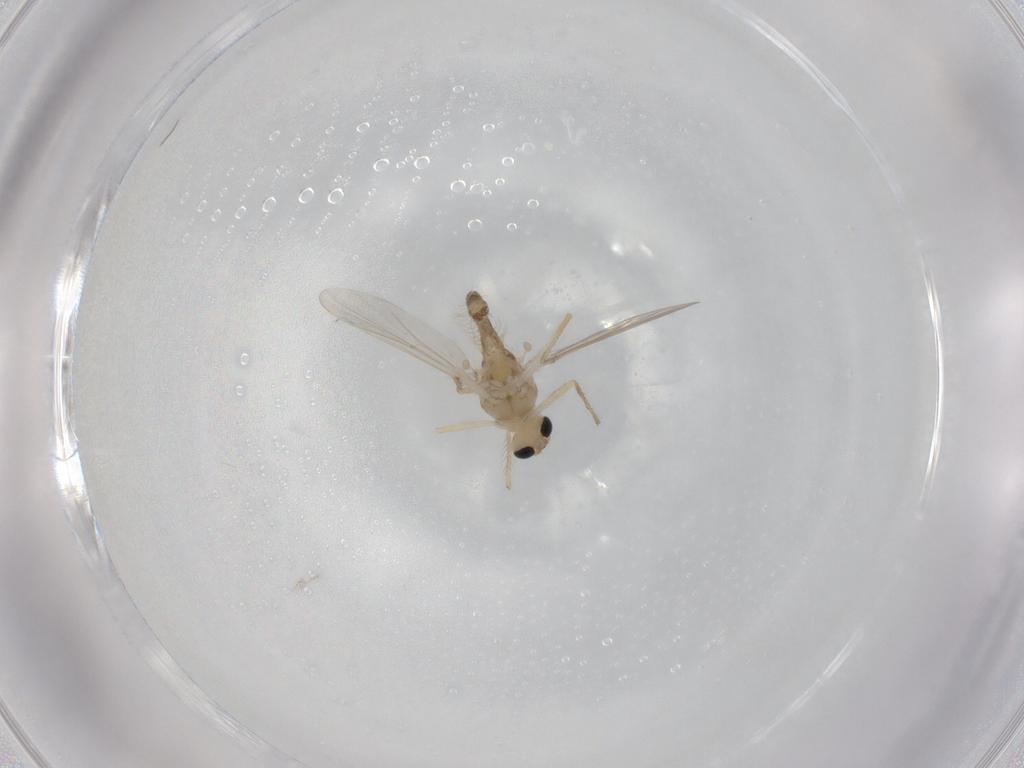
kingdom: Animalia
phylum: Arthropoda
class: Insecta
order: Diptera
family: Chironomidae
